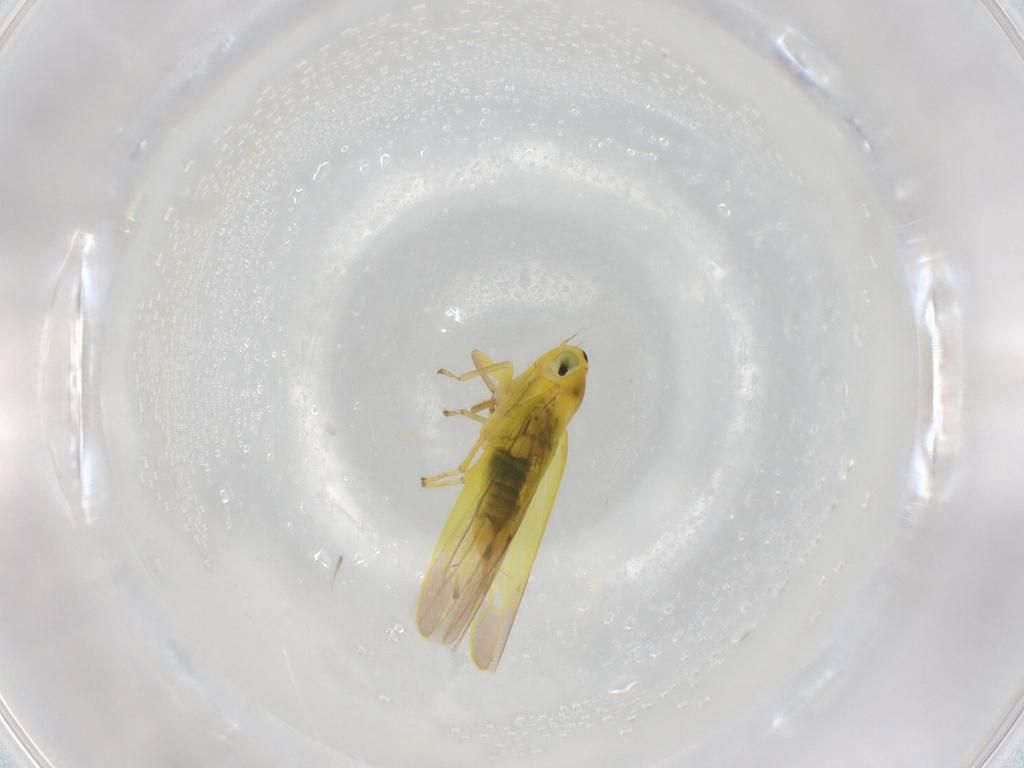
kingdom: Animalia
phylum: Arthropoda
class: Insecta
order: Hemiptera
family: Cicadellidae
